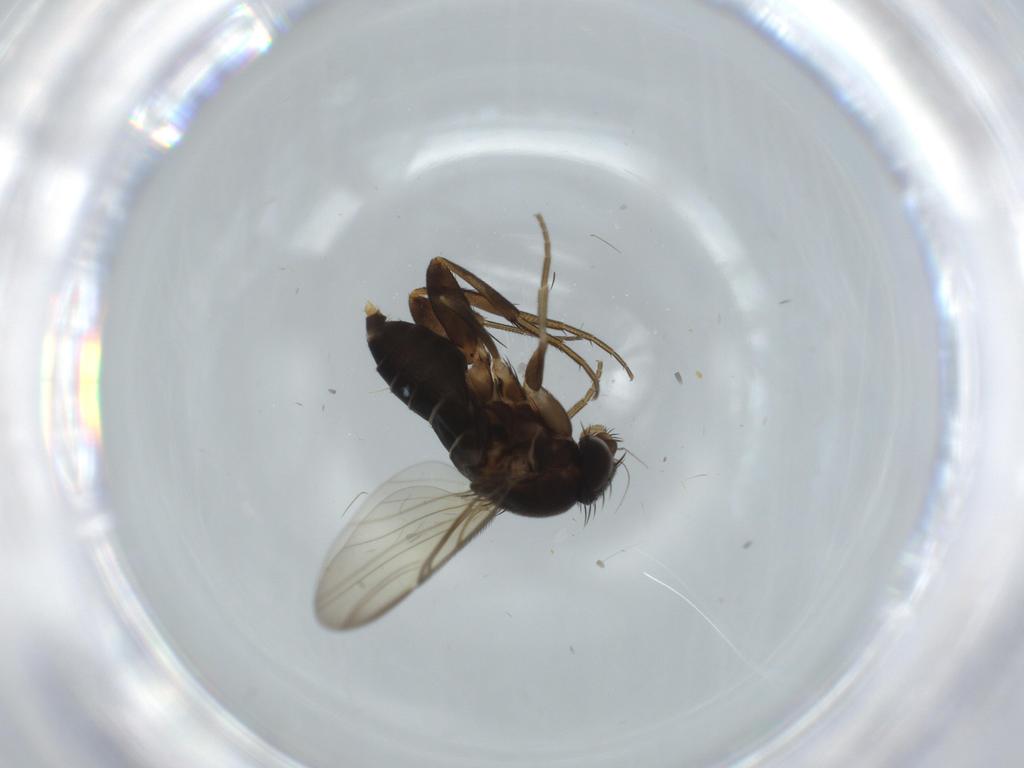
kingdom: Animalia
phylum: Arthropoda
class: Insecta
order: Diptera
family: Phoridae
